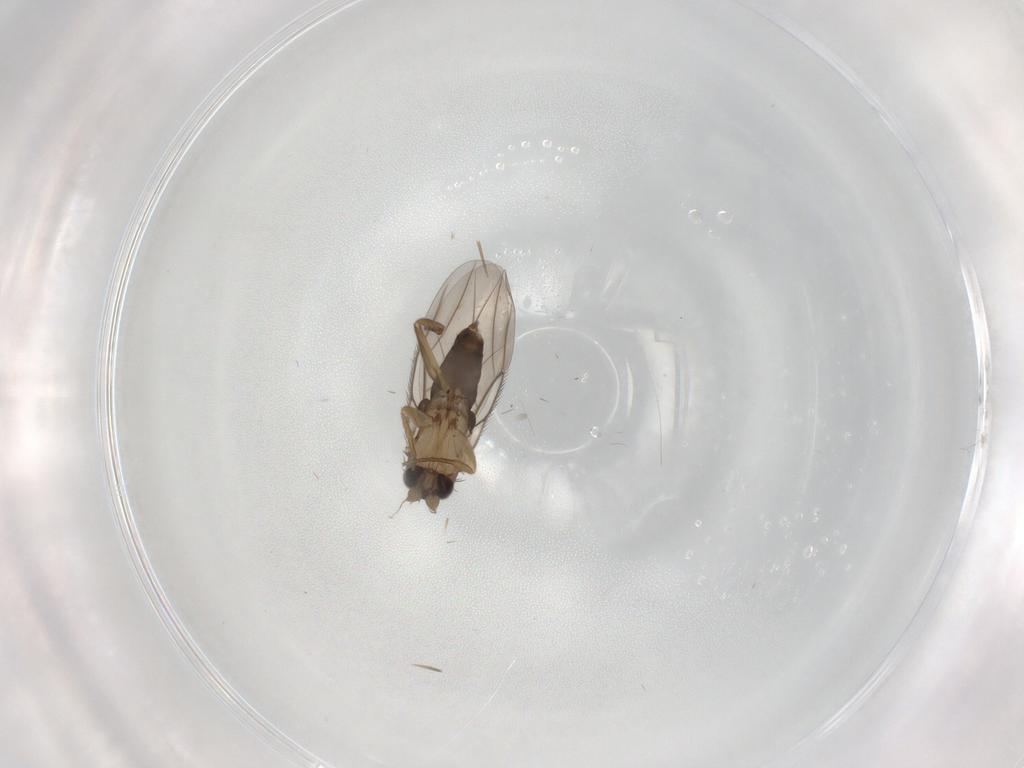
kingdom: Animalia
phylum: Arthropoda
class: Insecta
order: Diptera
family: Phoridae
